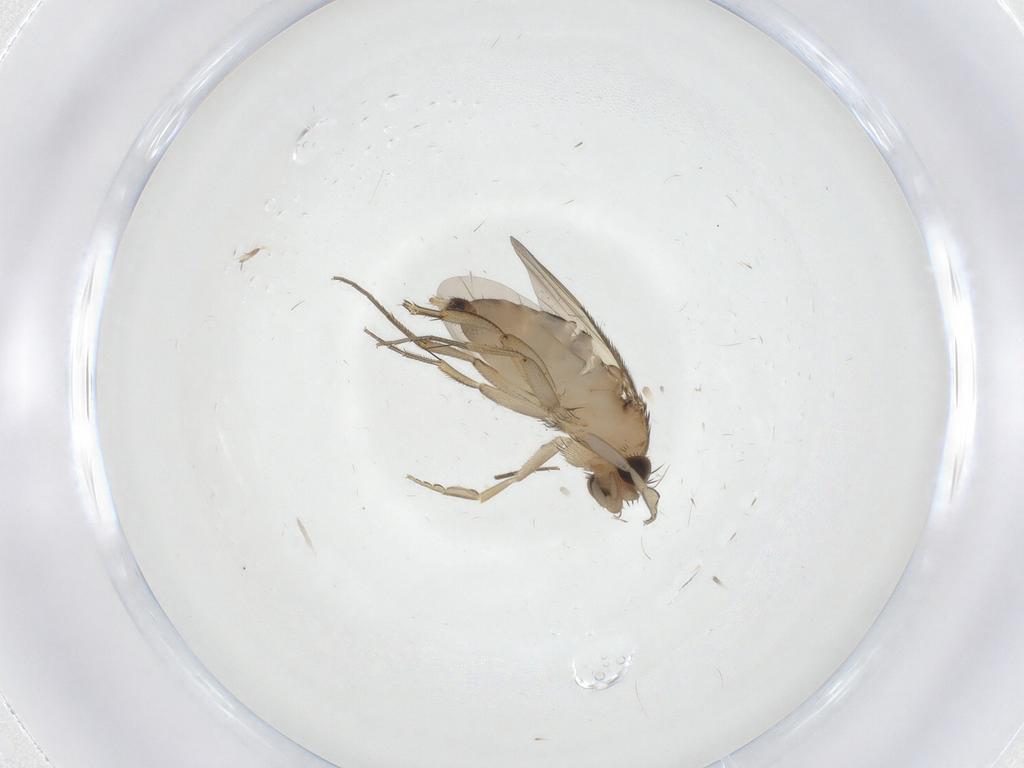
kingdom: Animalia
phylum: Arthropoda
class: Insecta
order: Diptera
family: Phoridae
